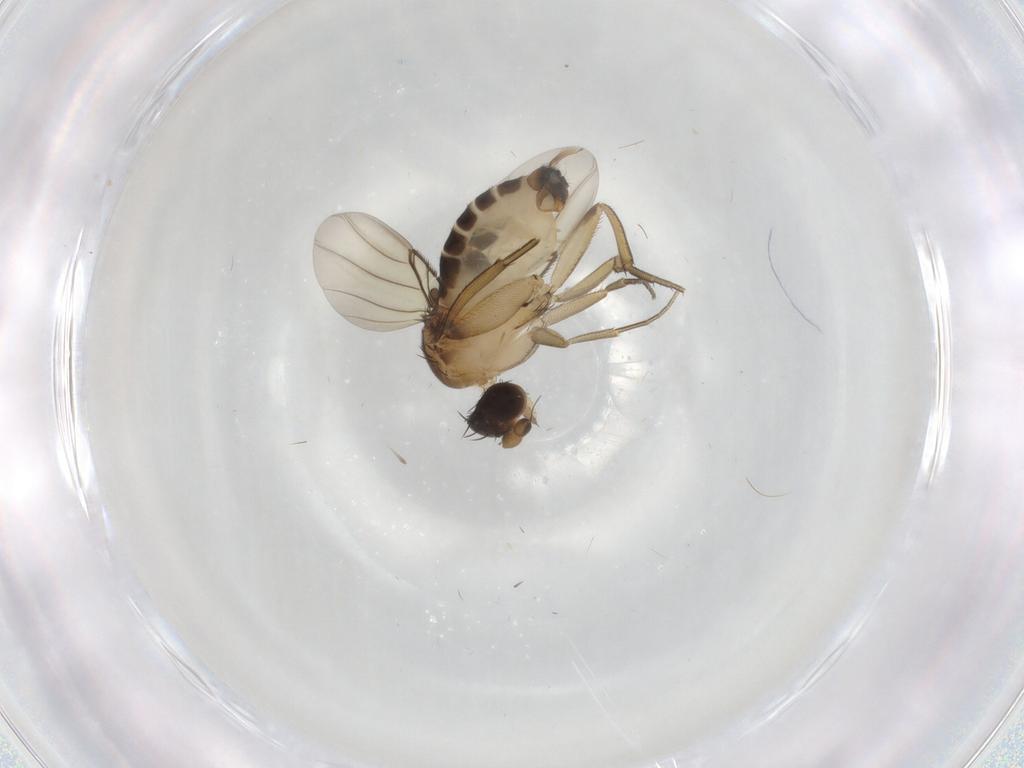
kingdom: Animalia
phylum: Arthropoda
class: Insecta
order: Diptera
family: Phoridae
